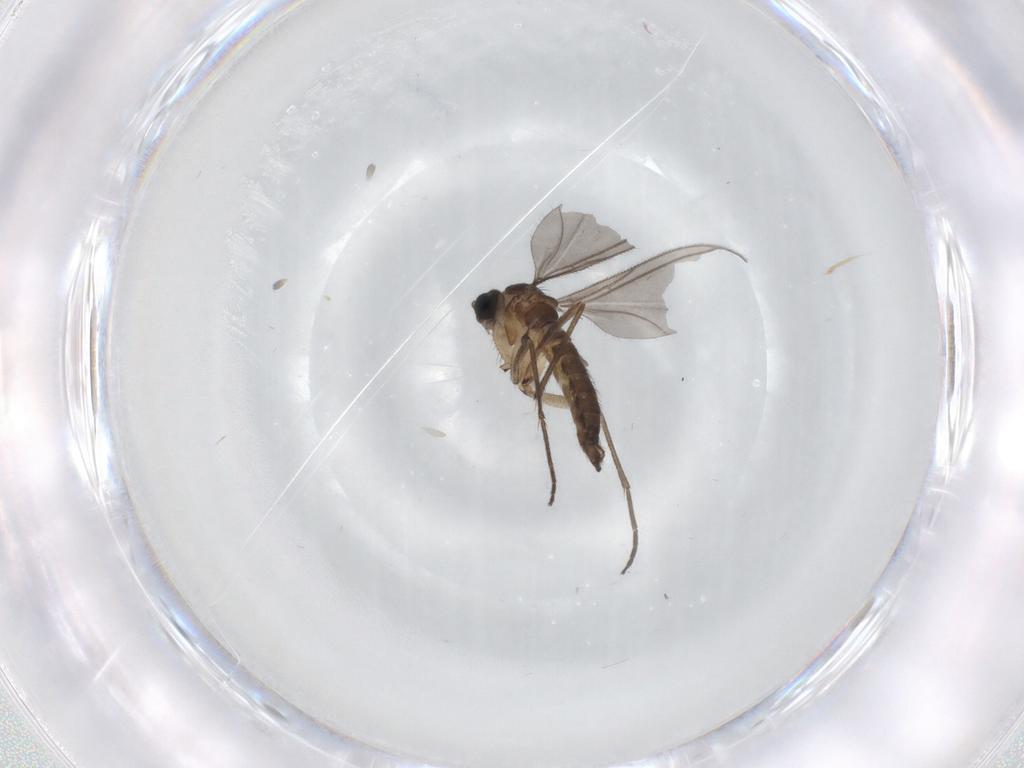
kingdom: Animalia
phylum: Arthropoda
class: Insecta
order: Diptera
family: Sciaridae
